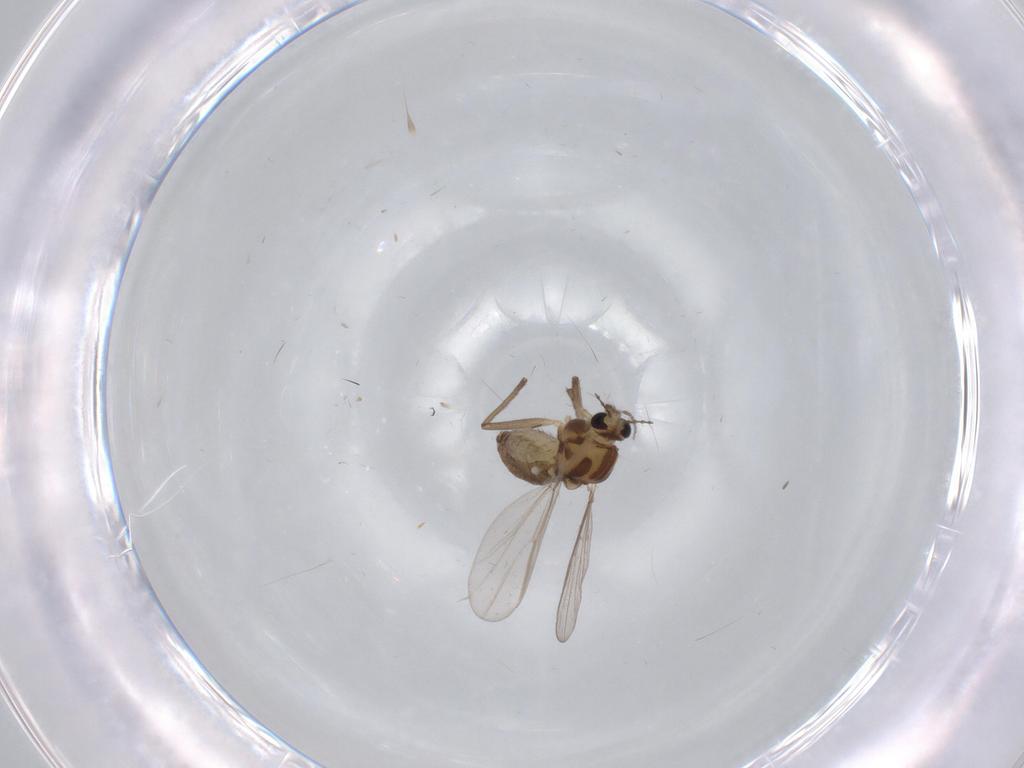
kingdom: Animalia
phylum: Arthropoda
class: Insecta
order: Diptera
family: Chironomidae
